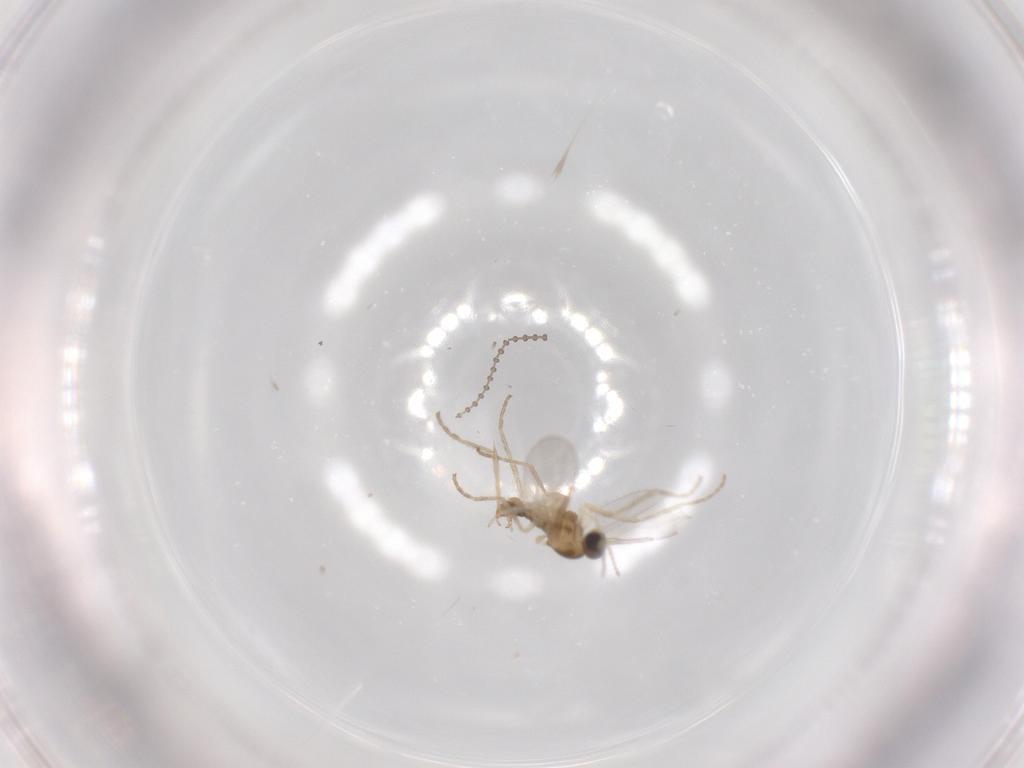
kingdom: Animalia
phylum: Arthropoda
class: Insecta
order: Diptera
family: Cecidomyiidae
